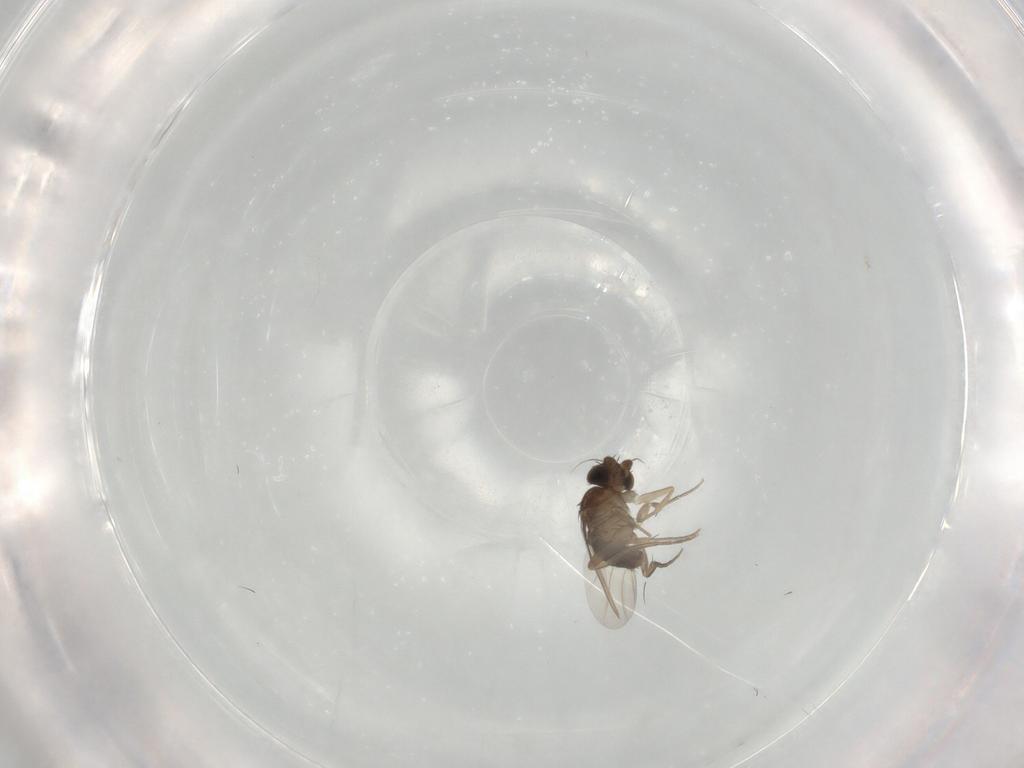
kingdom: Animalia
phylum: Arthropoda
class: Insecta
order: Diptera
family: Phoridae
